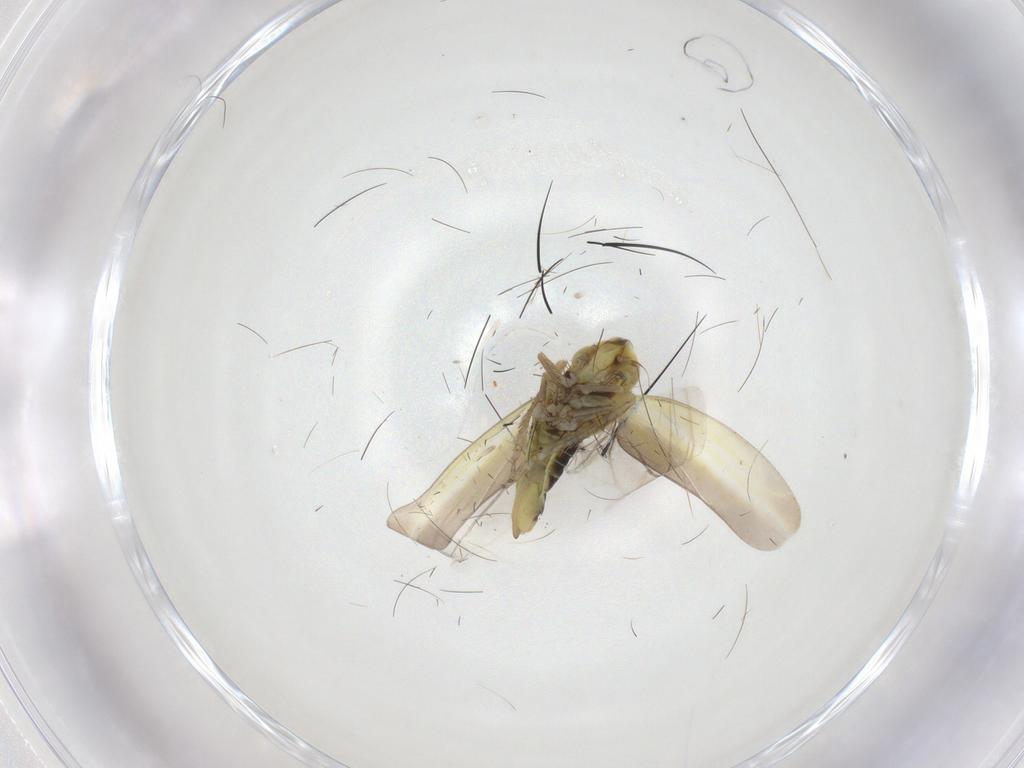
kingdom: Animalia
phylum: Arthropoda
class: Insecta
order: Hemiptera
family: Cicadellidae
